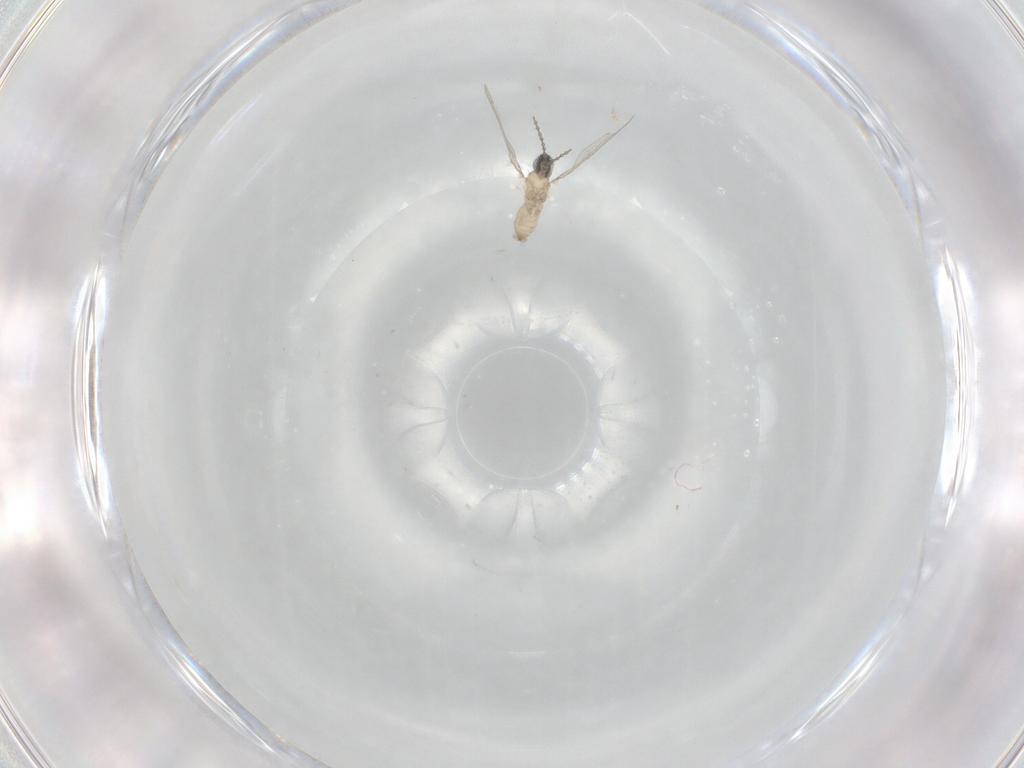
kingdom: Animalia
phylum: Arthropoda
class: Insecta
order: Diptera
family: Cecidomyiidae
